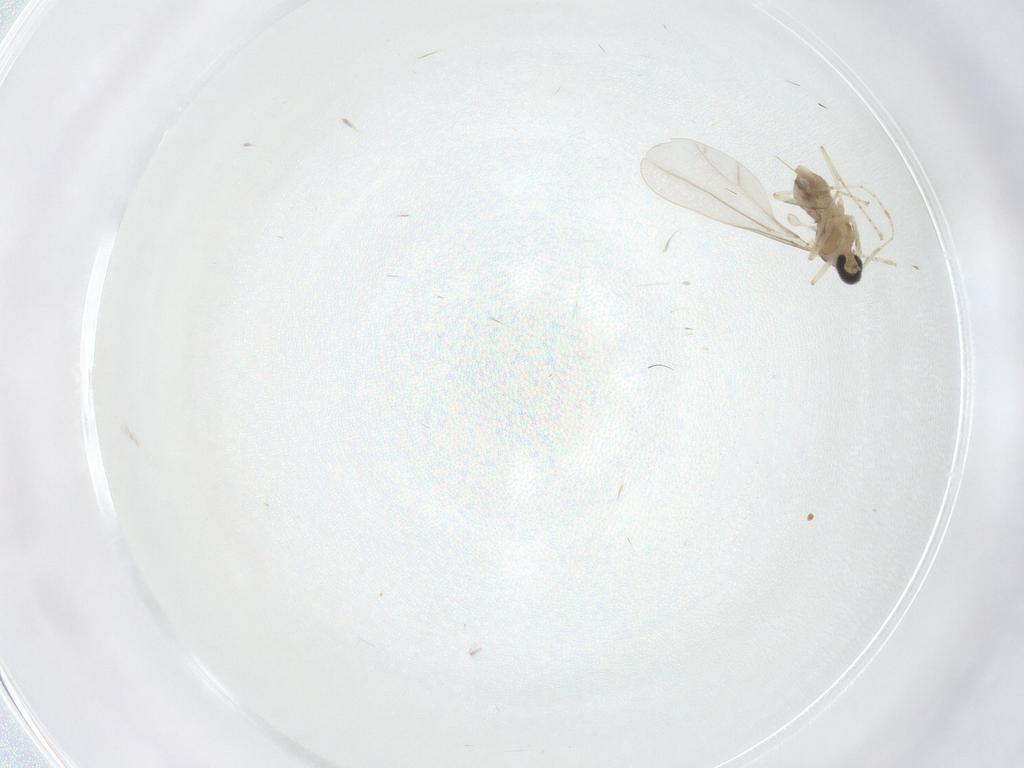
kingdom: Animalia
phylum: Arthropoda
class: Insecta
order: Diptera
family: Cecidomyiidae
